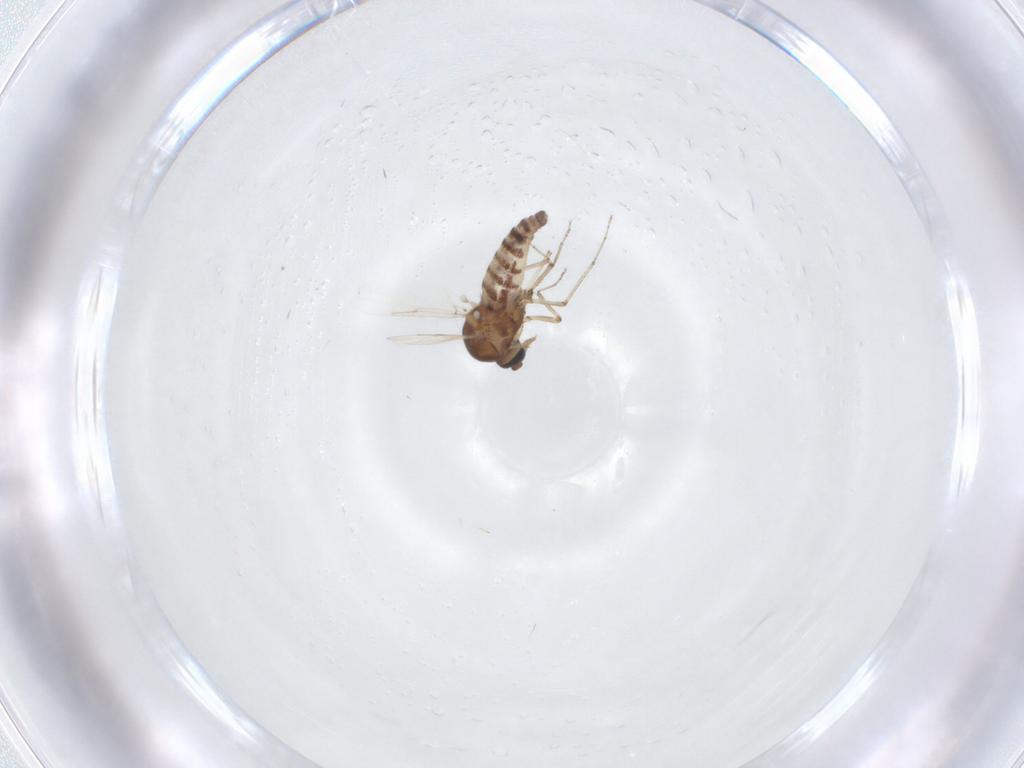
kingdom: Animalia
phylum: Arthropoda
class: Insecta
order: Diptera
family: Ceratopogonidae
